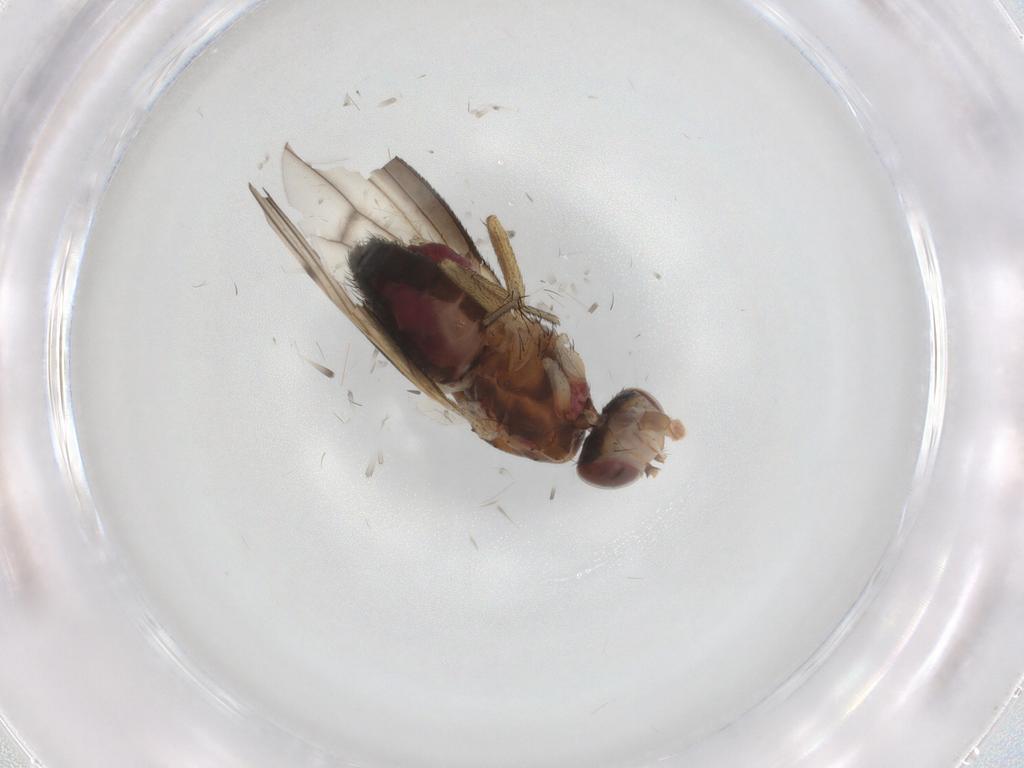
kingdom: Animalia
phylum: Arthropoda
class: Insecta
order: Diptera
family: Heleomyzidae
